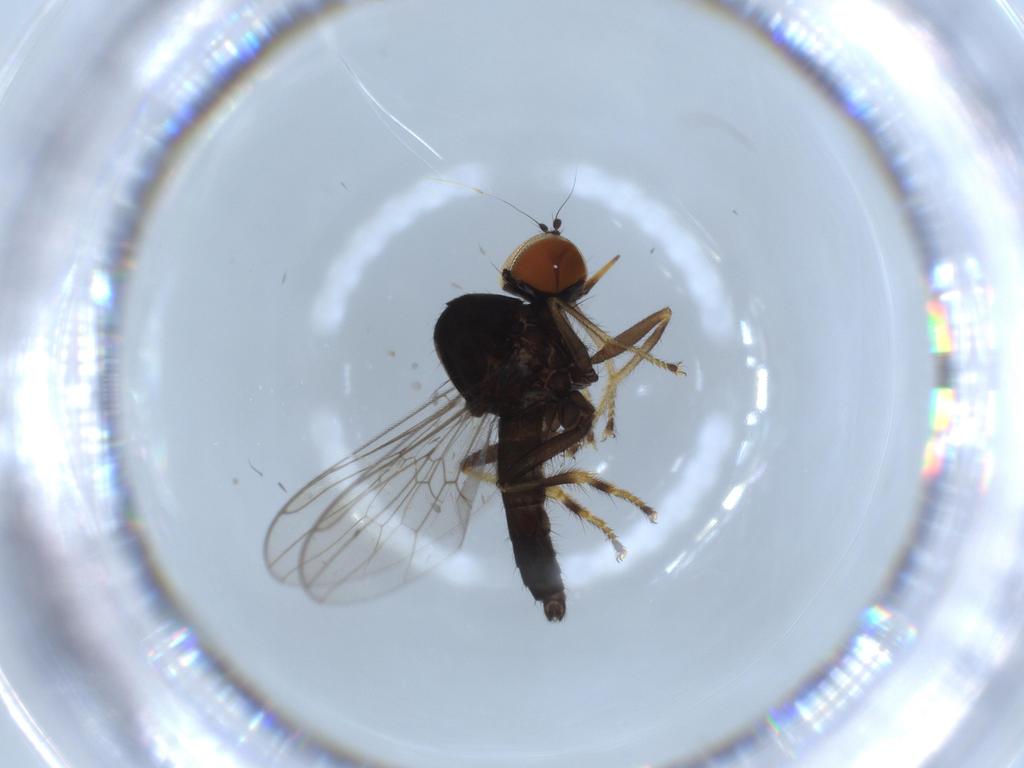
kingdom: Animalia
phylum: Arthropoda
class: Insecta
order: Diptera
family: Hybotidae
